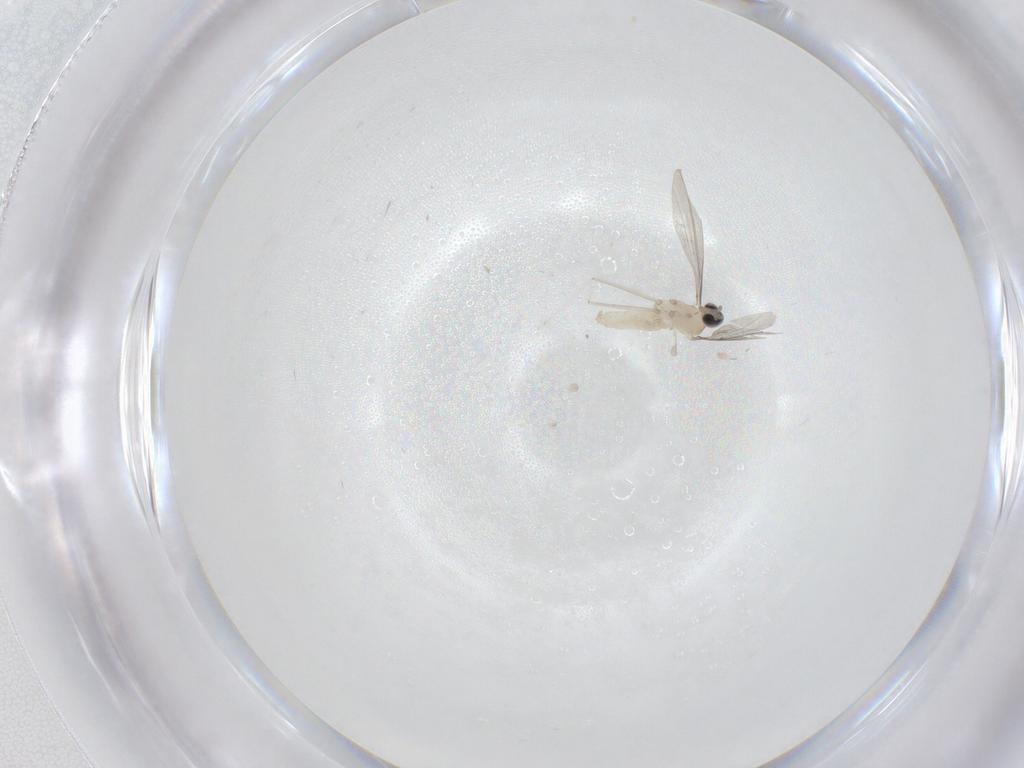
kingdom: Animalia
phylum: Arthropoda
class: Insecta
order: Diptera
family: Cecidomyiidae
